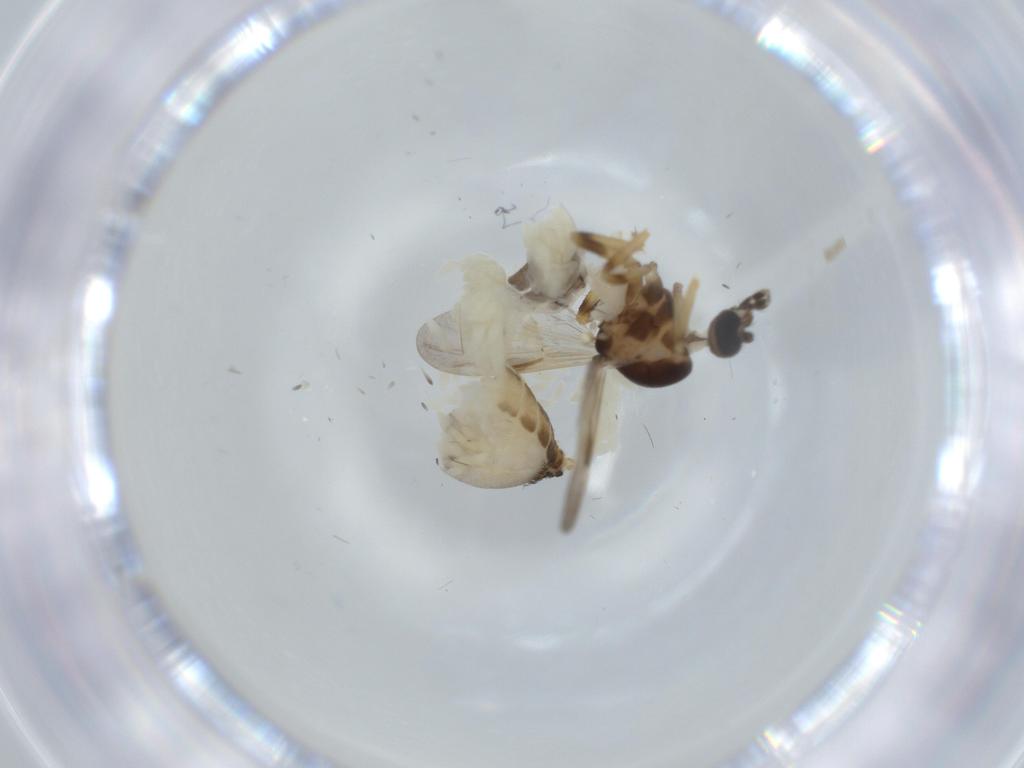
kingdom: Animalia
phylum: Arthropoda
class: Insecta
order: Diptera
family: Ceratopogonidae
